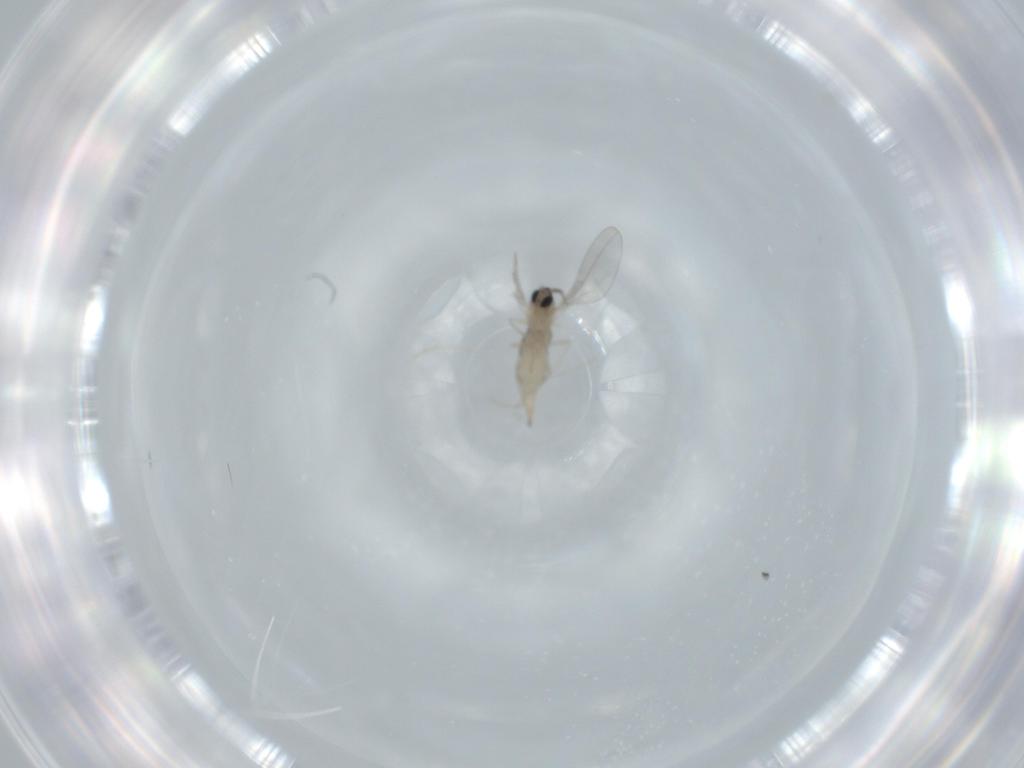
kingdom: Animalia
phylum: Arthropoda
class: Insecta
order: Diptera
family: Cecidomyiidae
